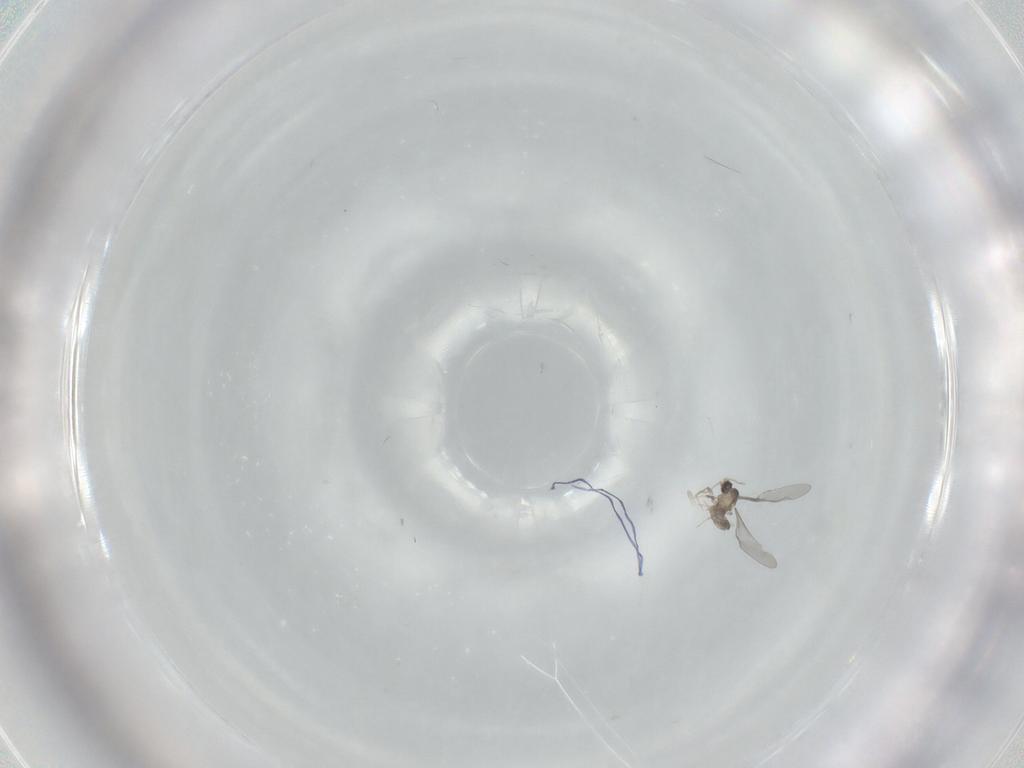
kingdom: Animalia
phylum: Arthropoda
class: Insecta
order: Diptera
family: Cecidomyiidae
